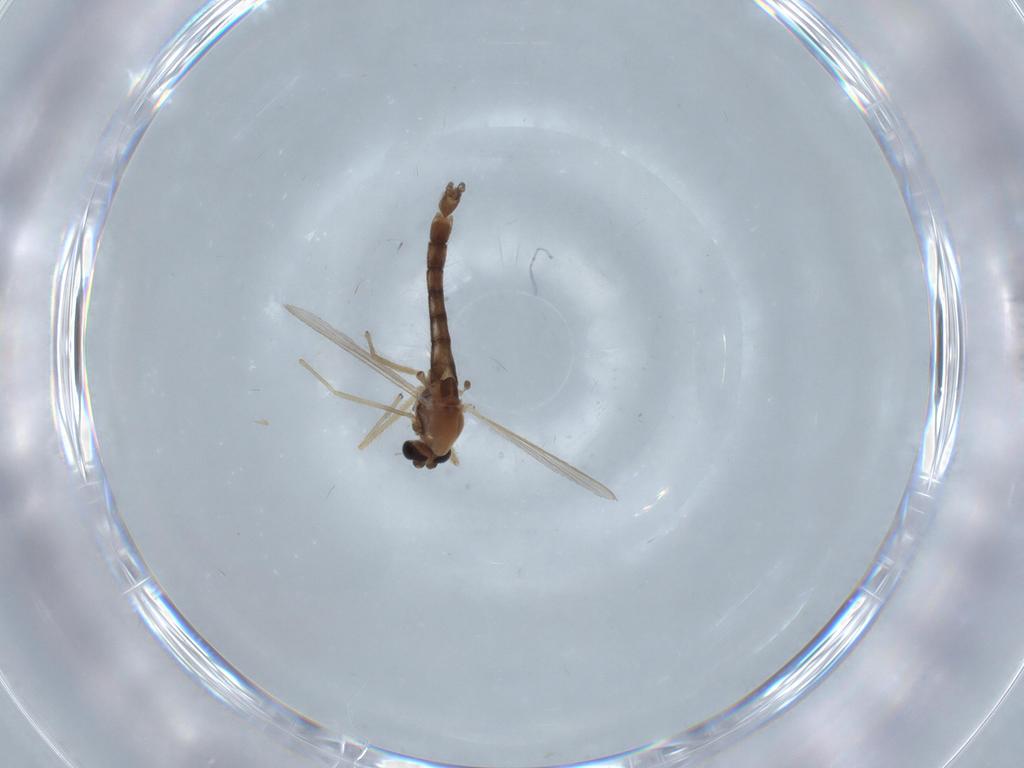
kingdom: Animalia
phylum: Arthropoda
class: Insecta
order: Diptera
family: Chironomidae
